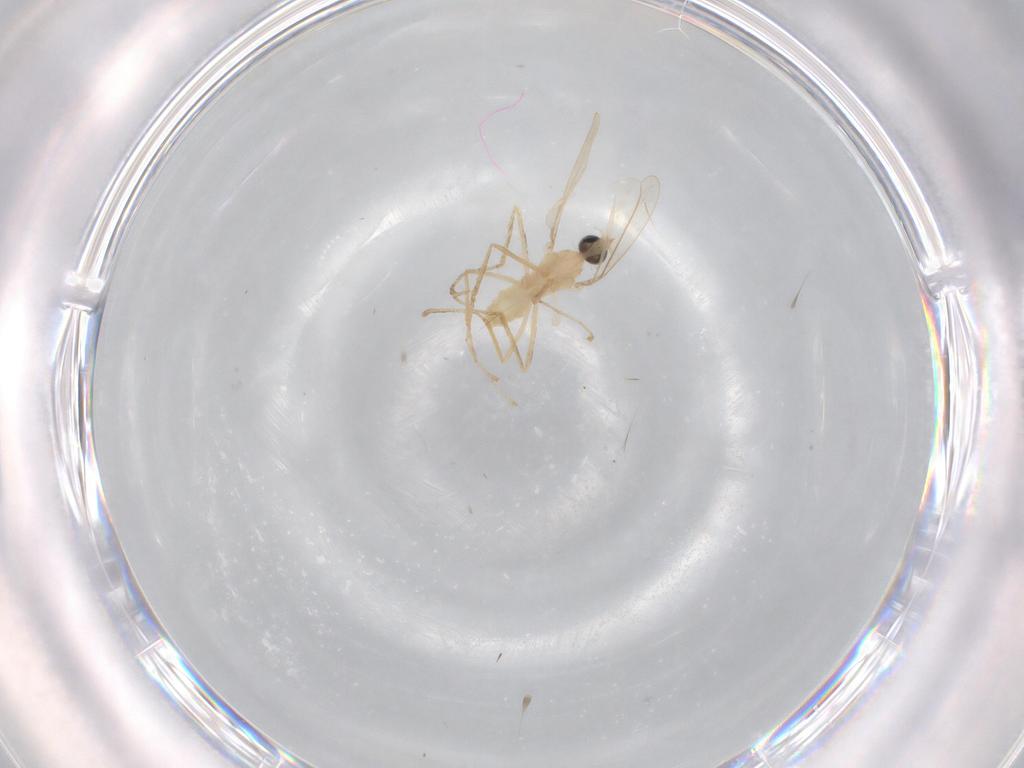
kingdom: Animalia
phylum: Arthropoda
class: Insecta
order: Diptera
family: Cecidomyiidae
